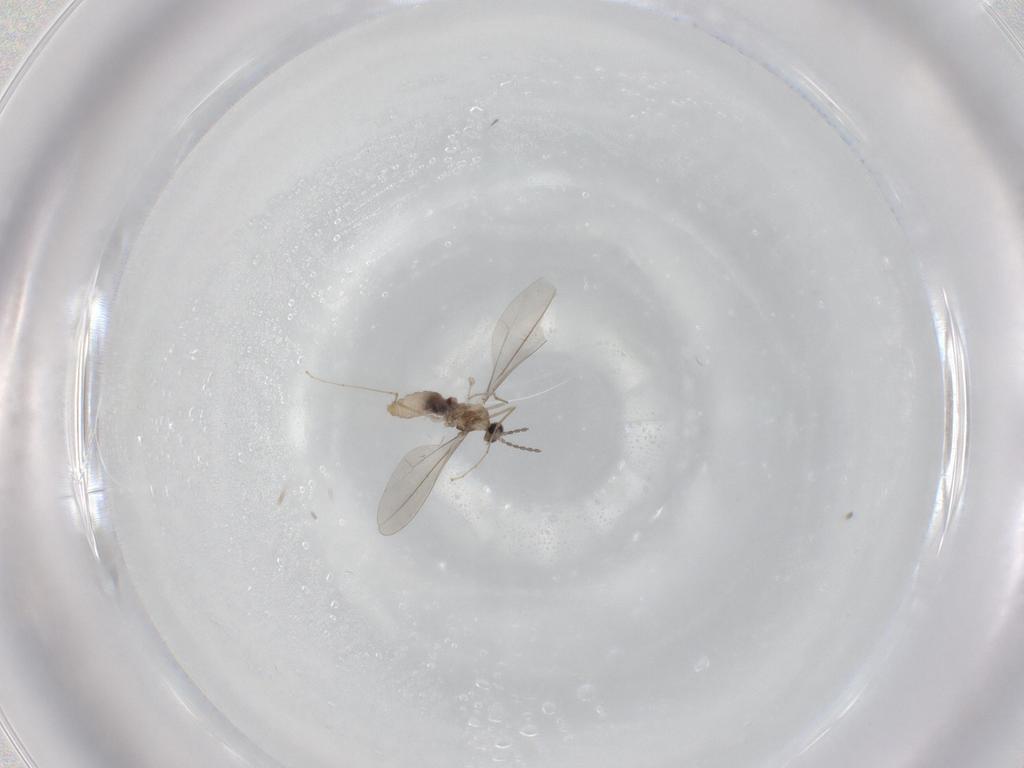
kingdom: Animalia
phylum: Arthropoda
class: Insecta
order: Diptera
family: Cecidomyiidae
